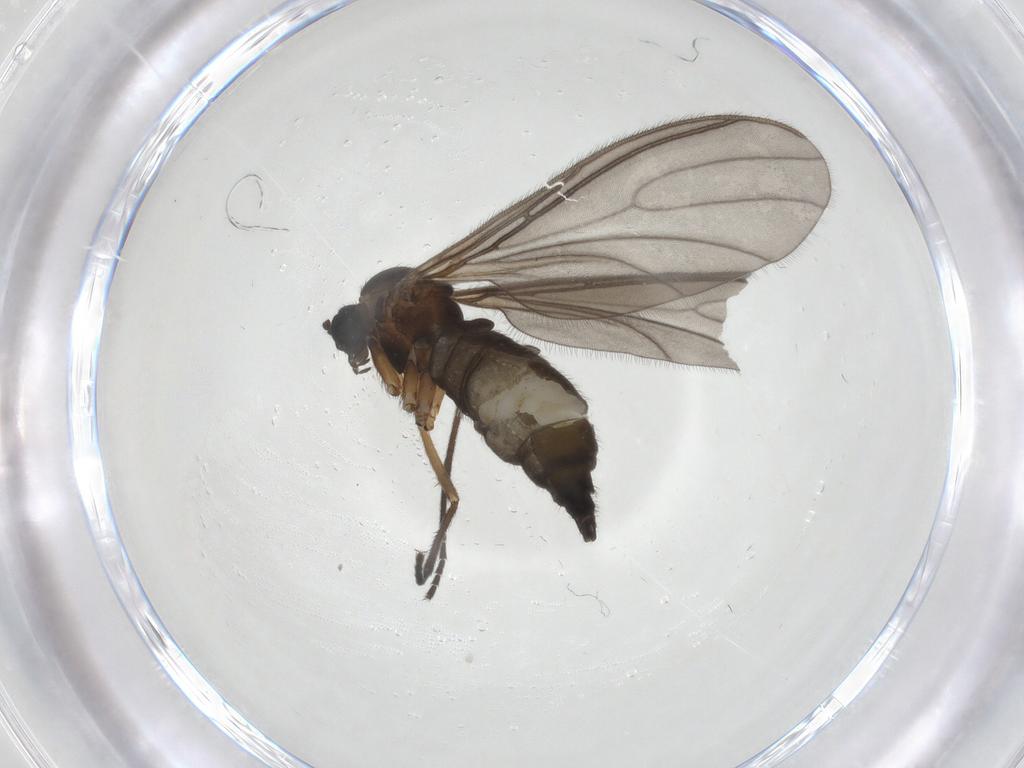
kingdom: Animalia
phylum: Arthropoda
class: Insecta
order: Diptera
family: Sciaridae
